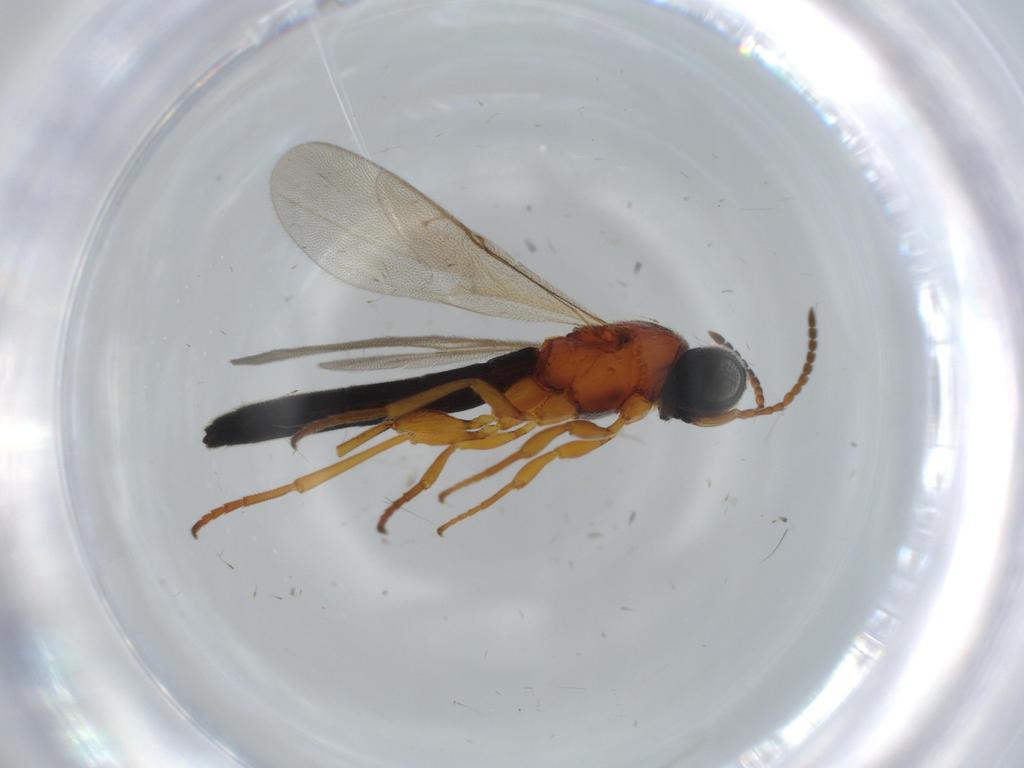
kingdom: Animalia
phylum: Arthropoda
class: Insecta
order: Hymenoptera
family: Scelionidae
